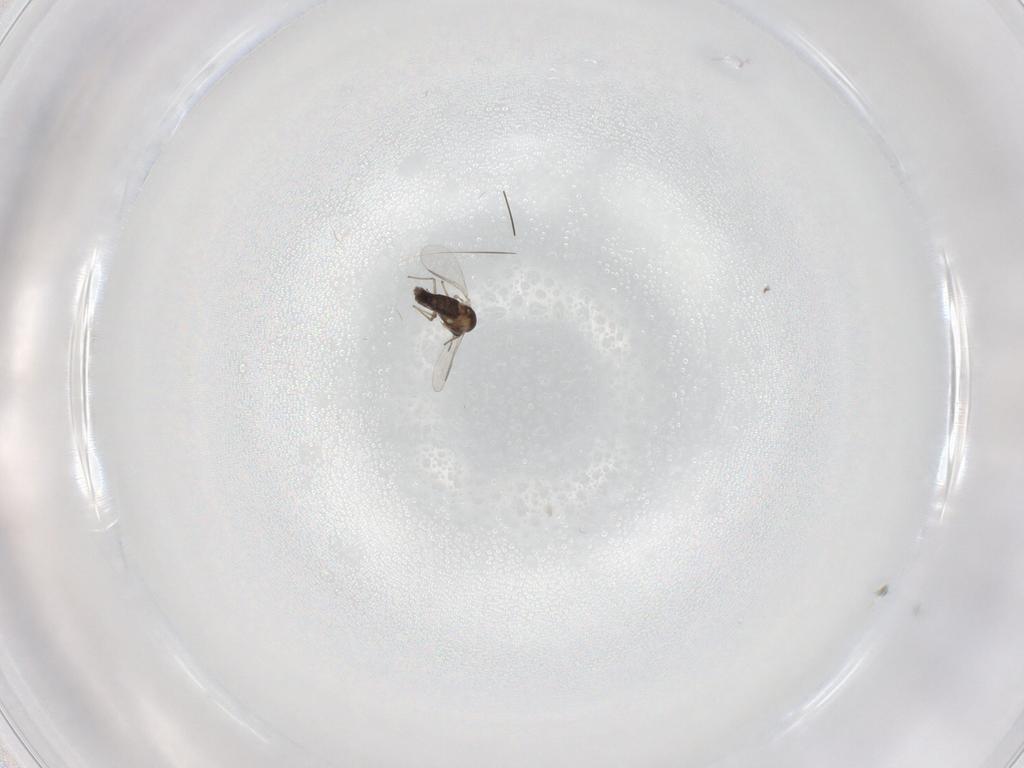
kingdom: Animalia
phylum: Arthropoda
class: Insecta
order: Diptera
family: Chironomidae
